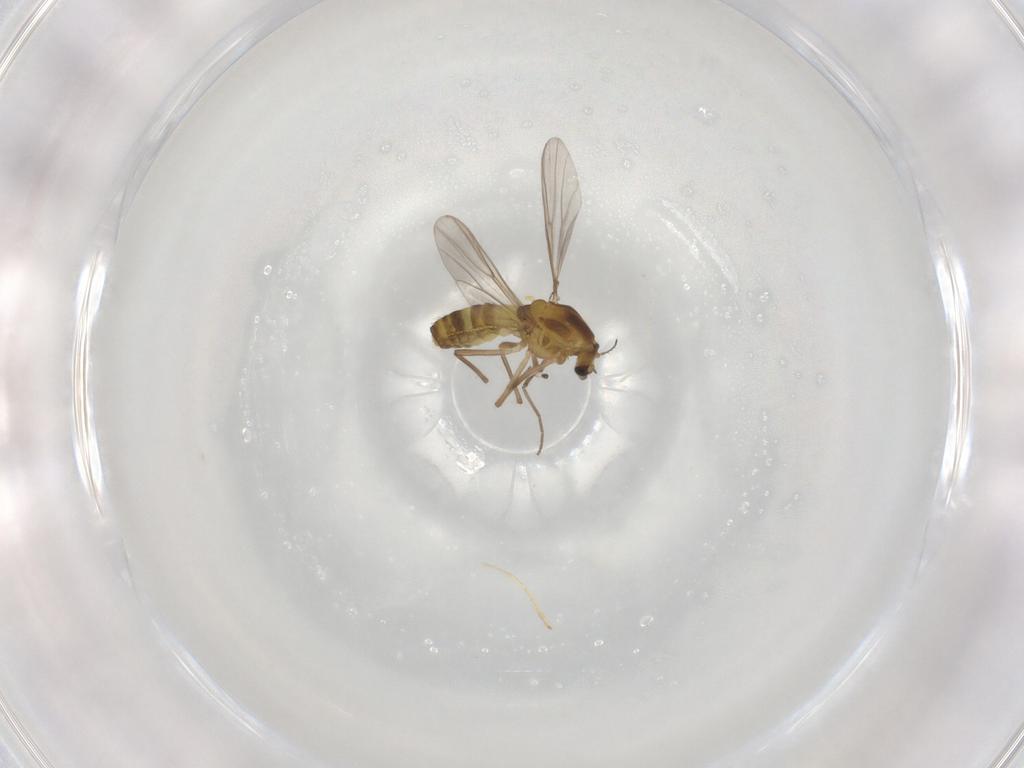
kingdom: Animalia
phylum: Arthropoda
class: Insecta
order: Diptera
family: Chironomidae
